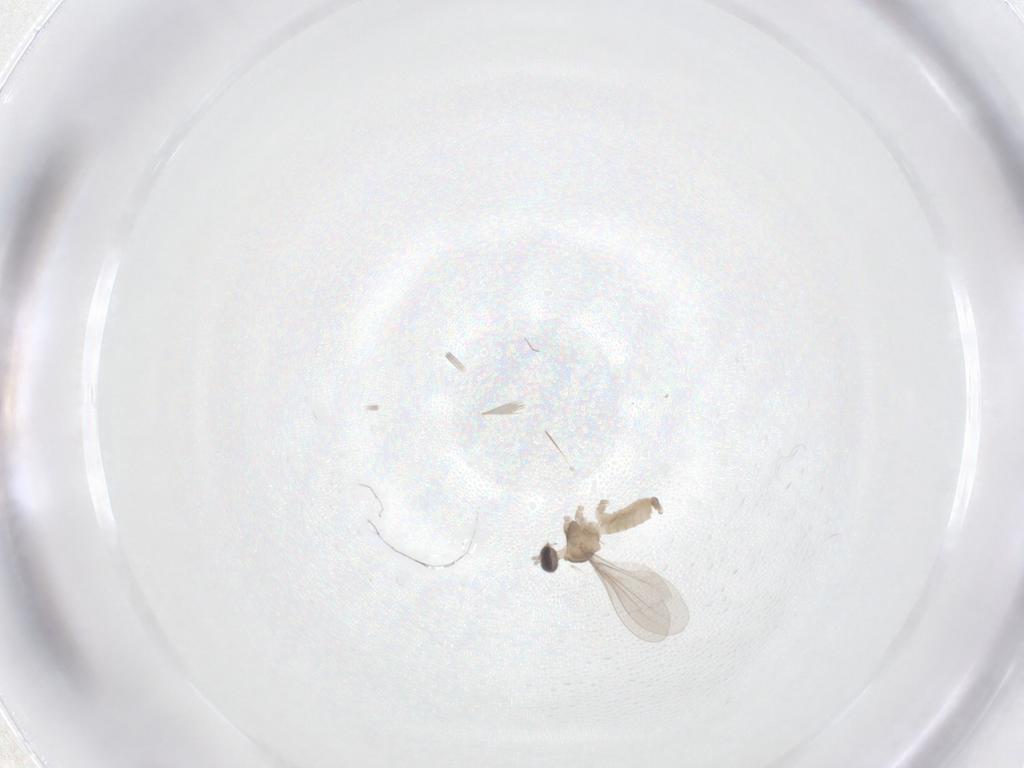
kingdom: Animalia
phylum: Arthropoda
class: Insecta
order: Diptera
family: Cecidomyiidae
